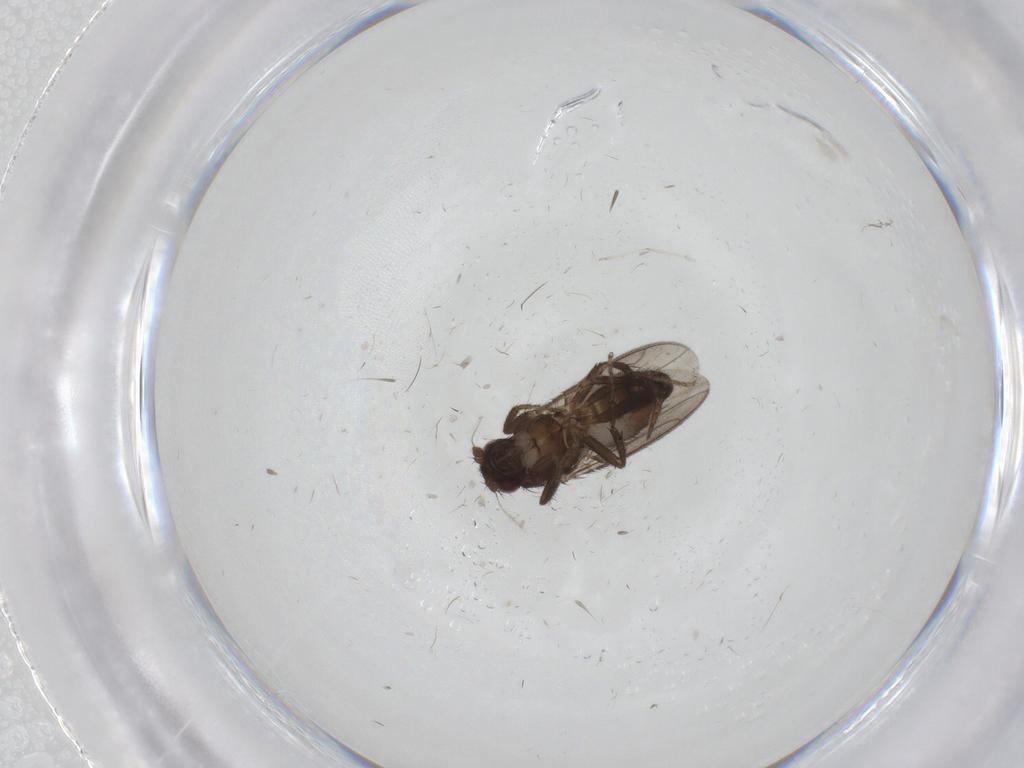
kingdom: Animalia
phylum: Arthropoda
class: Insecta
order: Diptera
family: Chironomidae
